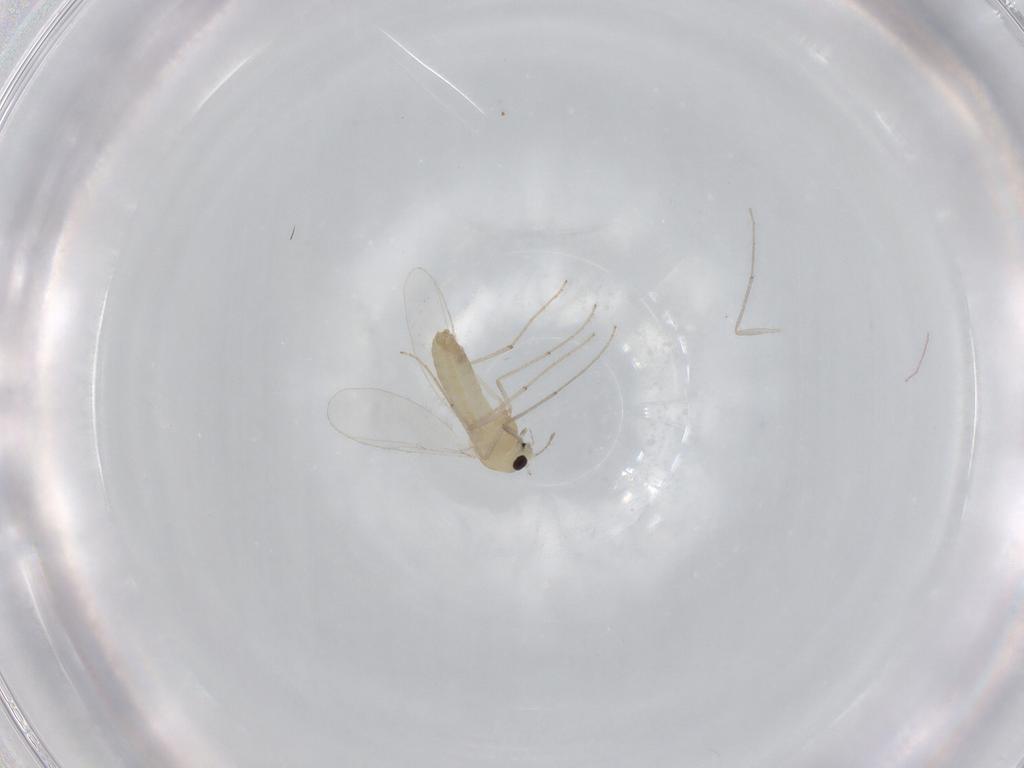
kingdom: Animalia
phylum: Arthropoda
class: Insecta
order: Diptera
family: Chironomidae
